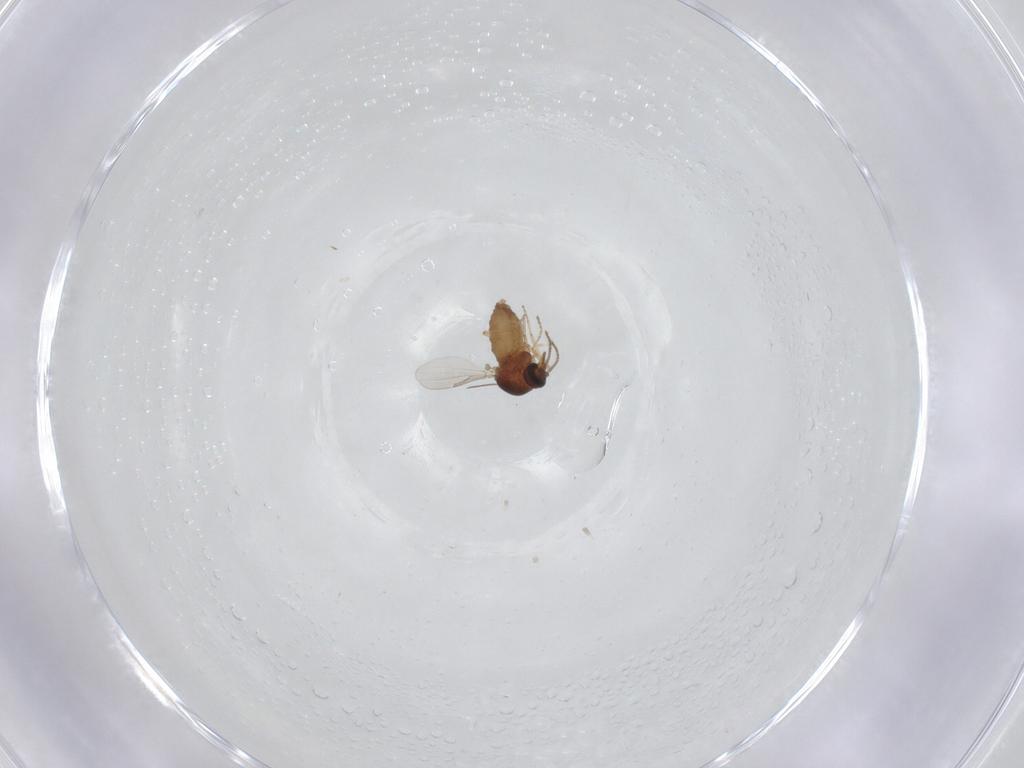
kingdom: Animalia
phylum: Arthropoda
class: Insecta
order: Diptera
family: Ceratopogonidae
